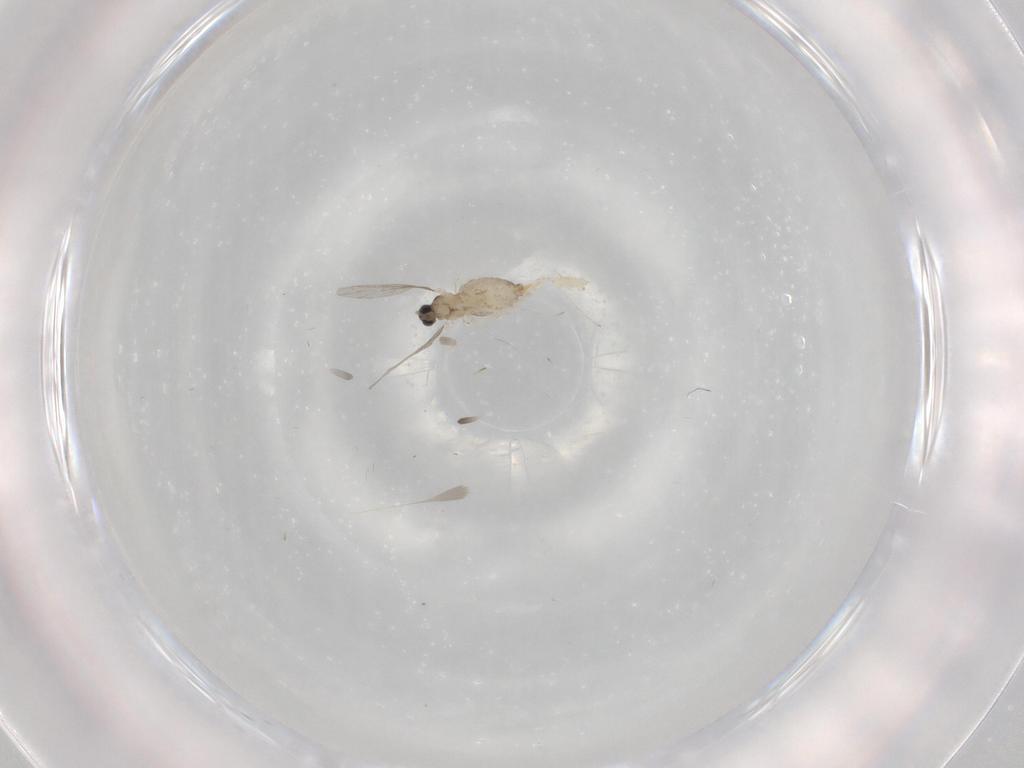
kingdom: Animalia
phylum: Arthropoda
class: Insecta
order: Diptera
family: Cecidomyiidae
